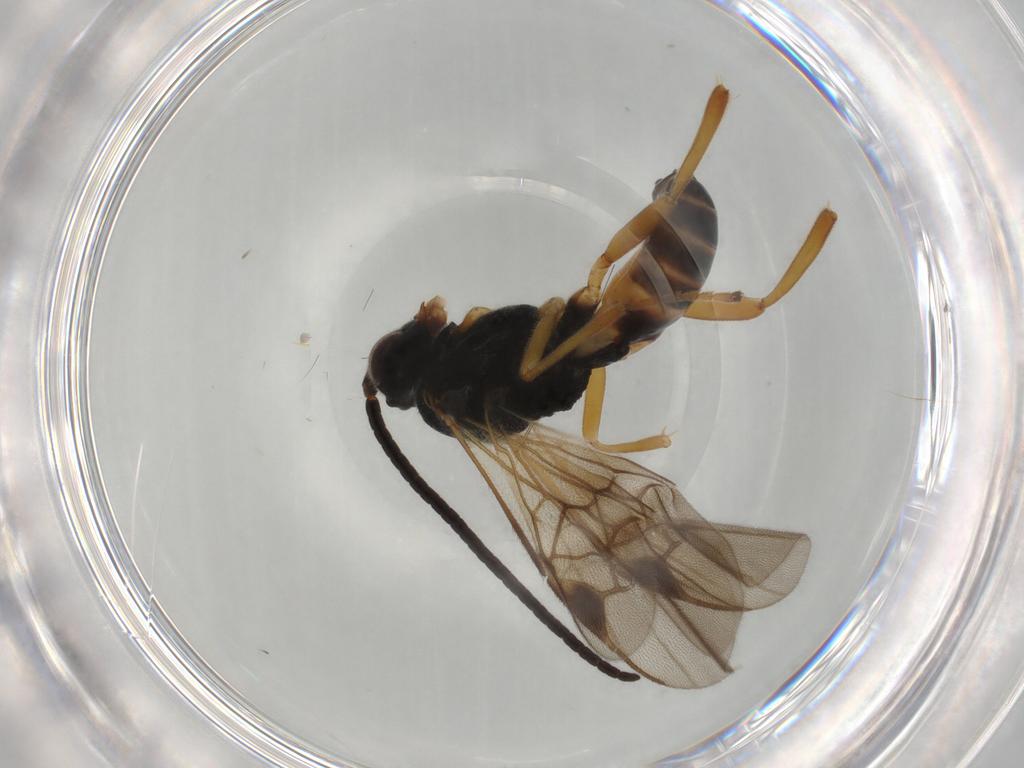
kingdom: Animalia
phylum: Arthropoda
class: Insecta
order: Hymenoptera
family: Braconidae
